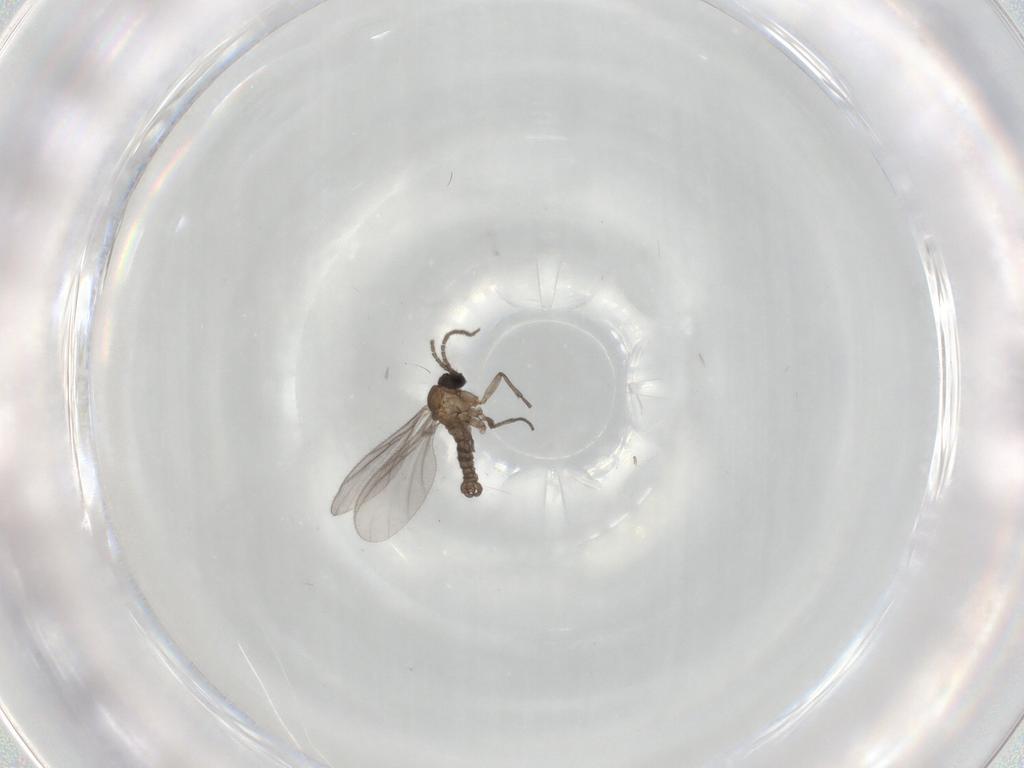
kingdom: Animalia
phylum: Arthropoda
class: Insecta
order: Diptera
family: Sciaridae
